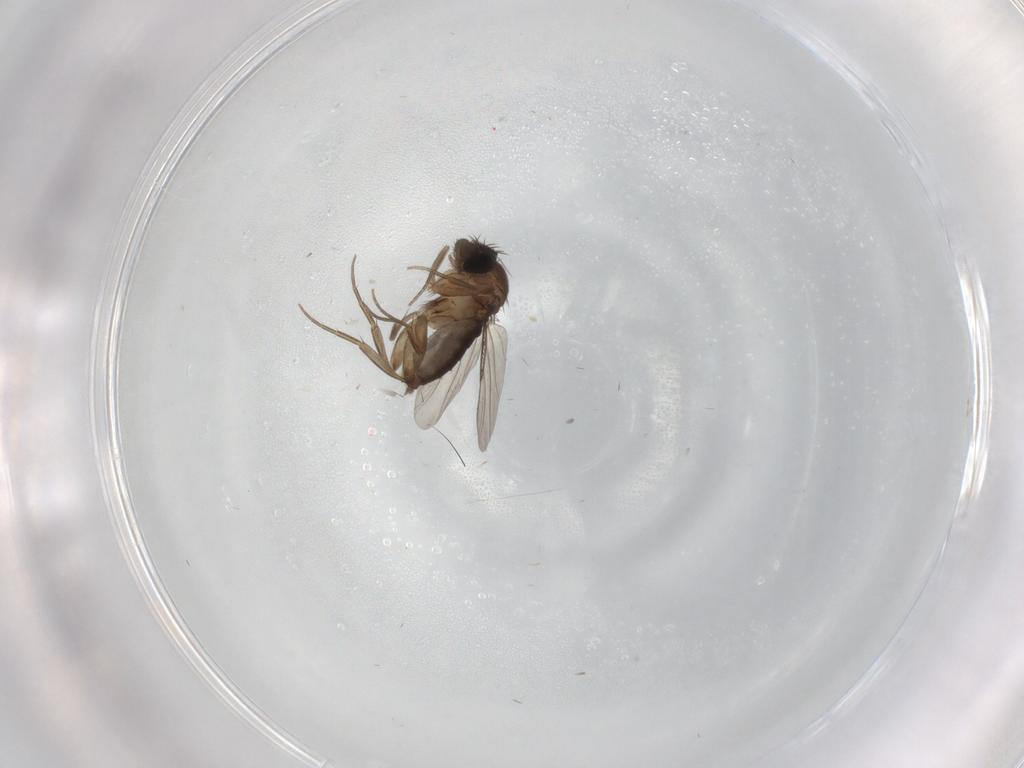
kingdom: Animalia
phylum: Arthropoda
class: Insecta
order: Diptera
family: Phoridae
